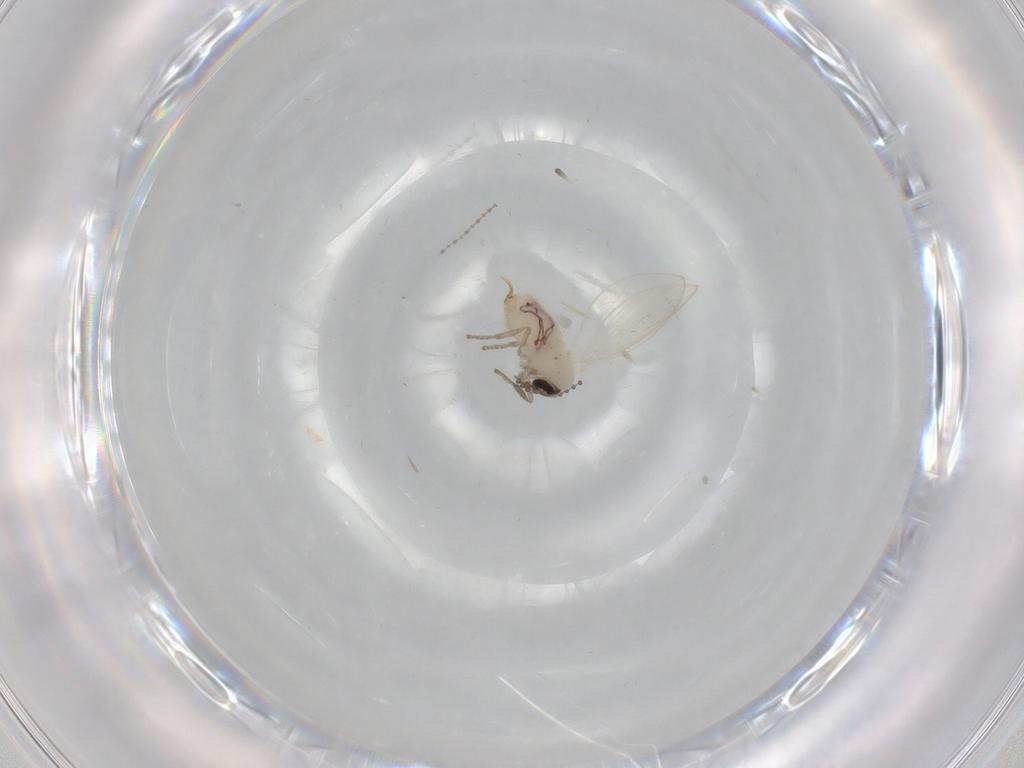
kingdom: Animalia
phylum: Arthropoda
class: Insecta
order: Diptera
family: Psychodidae
